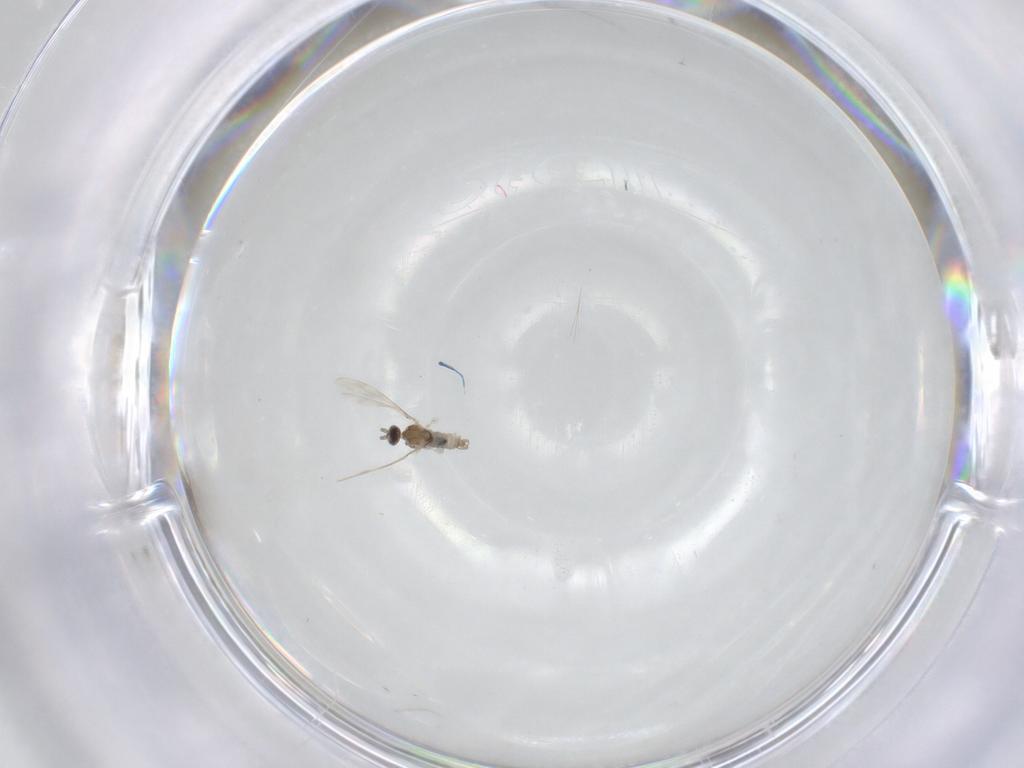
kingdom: Animalia
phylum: Arthropoda
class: Insecta
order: Diptera
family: Cecidomyiidae
